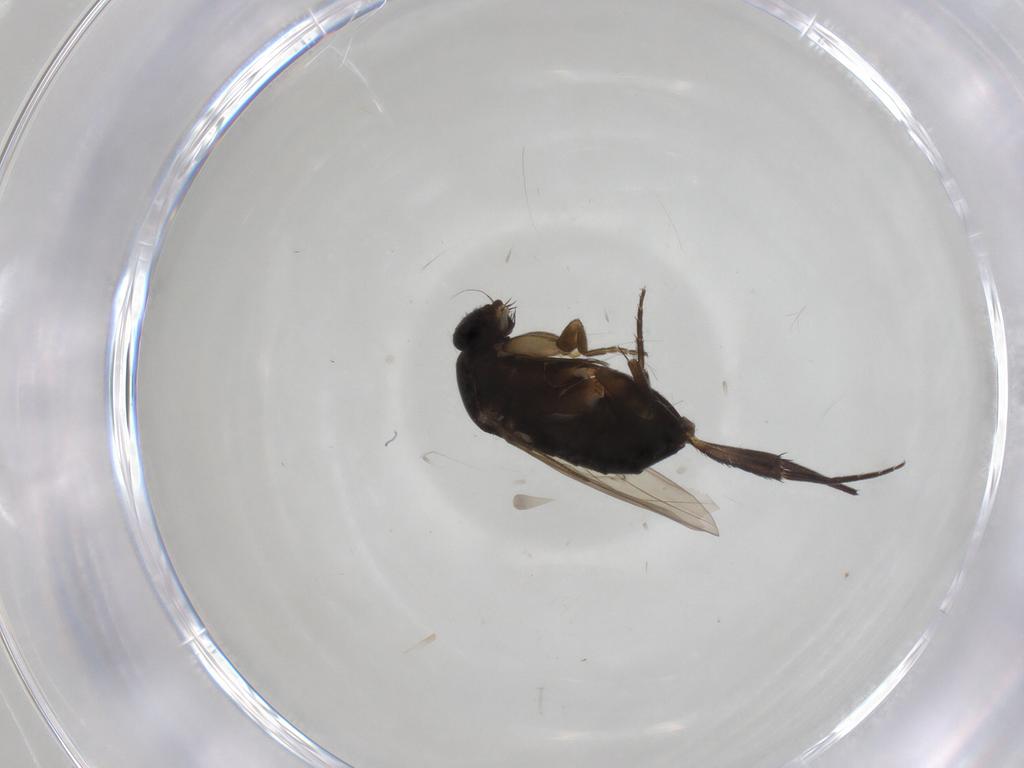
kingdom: Animalia
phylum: Arthropoda
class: Insecta
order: Diptera
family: Phoridae
